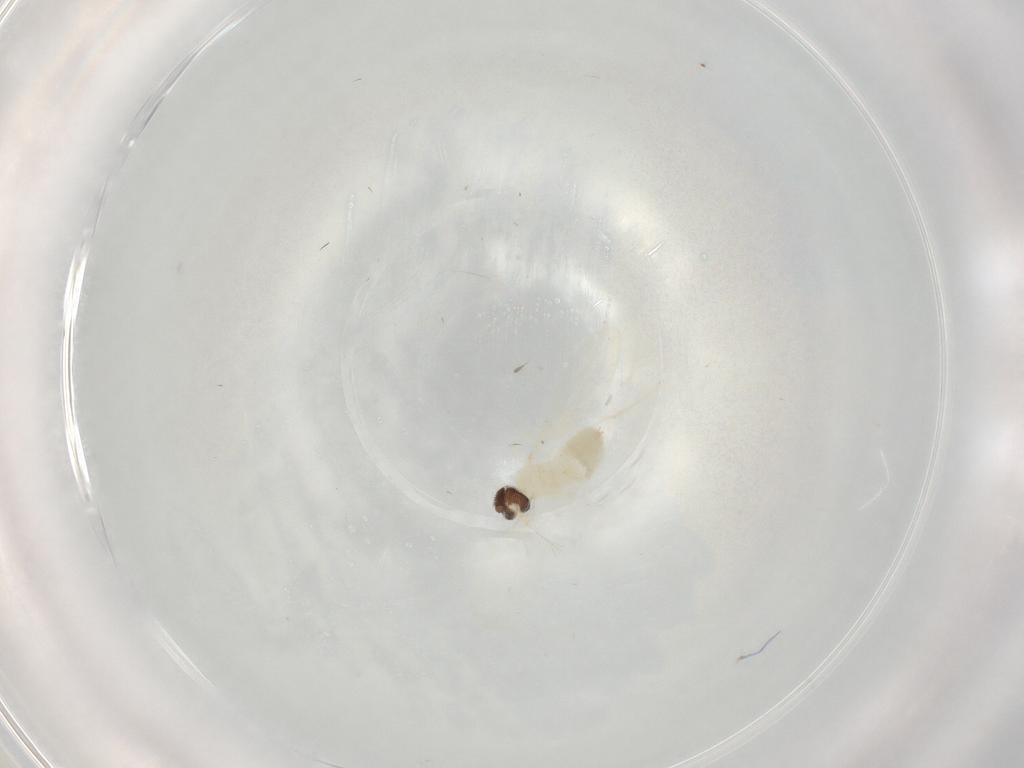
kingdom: Animalia
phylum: Arthropoda
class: Insecta
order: Diptera
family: Cecidomyiidae
